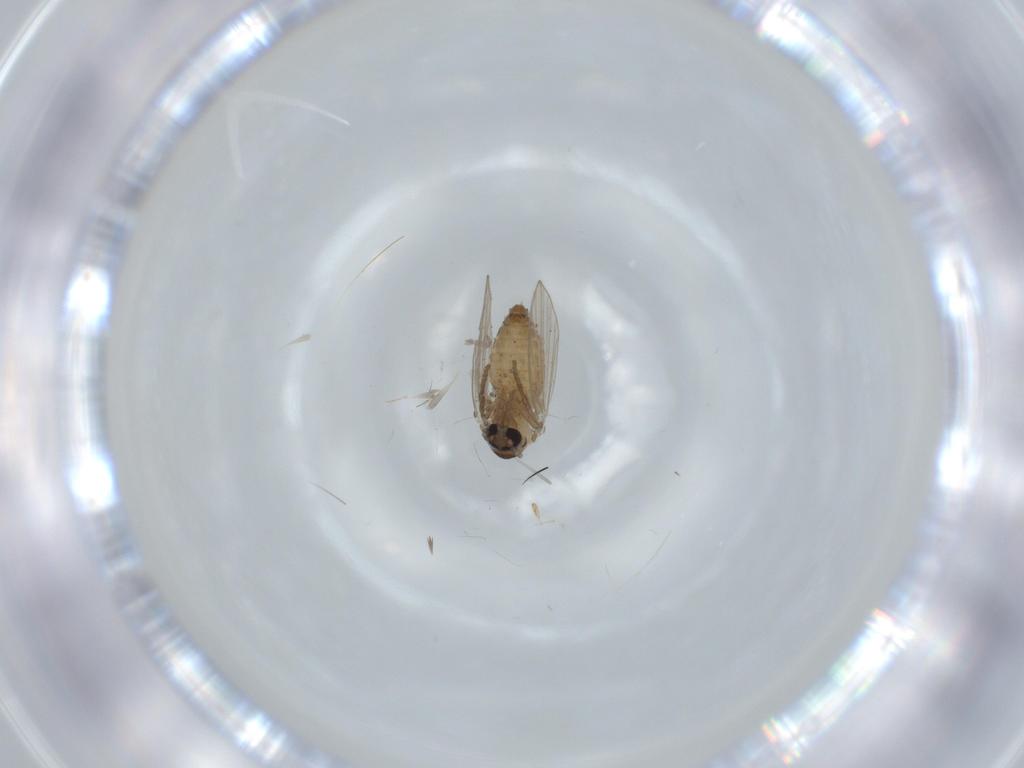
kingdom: Animalia
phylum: Arthropoda
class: Insecta
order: Diptera
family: Psychodidae
